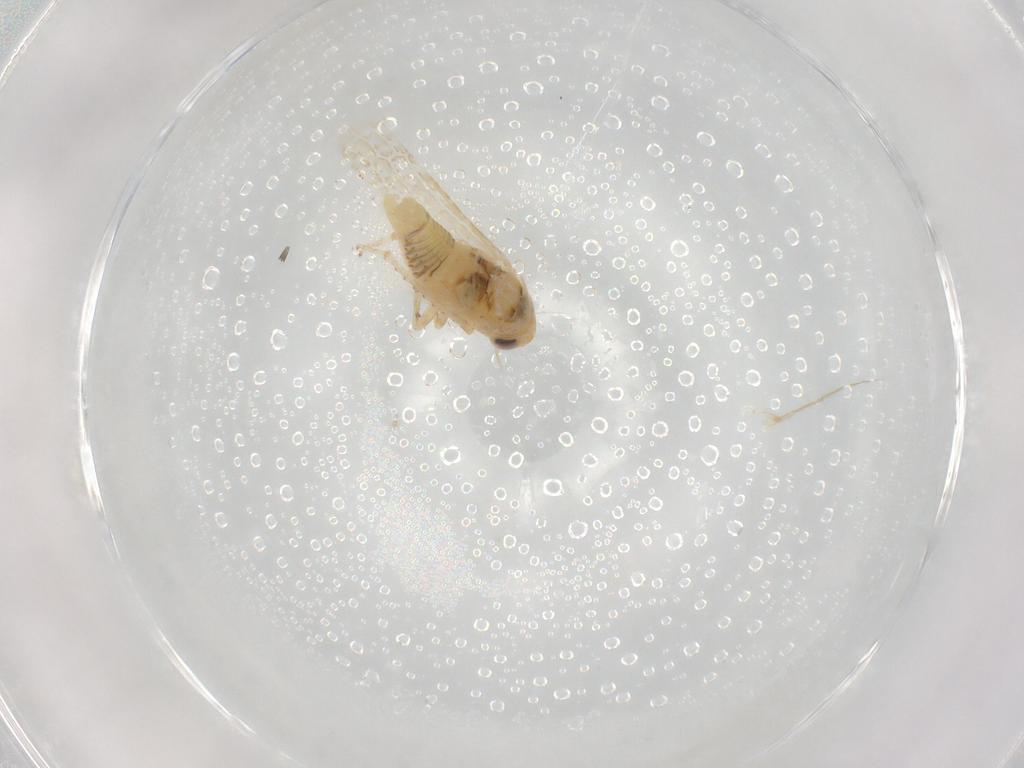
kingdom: Animalia
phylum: Arthropoda
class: Insecta
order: Hemiptera
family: Cicadellidae
